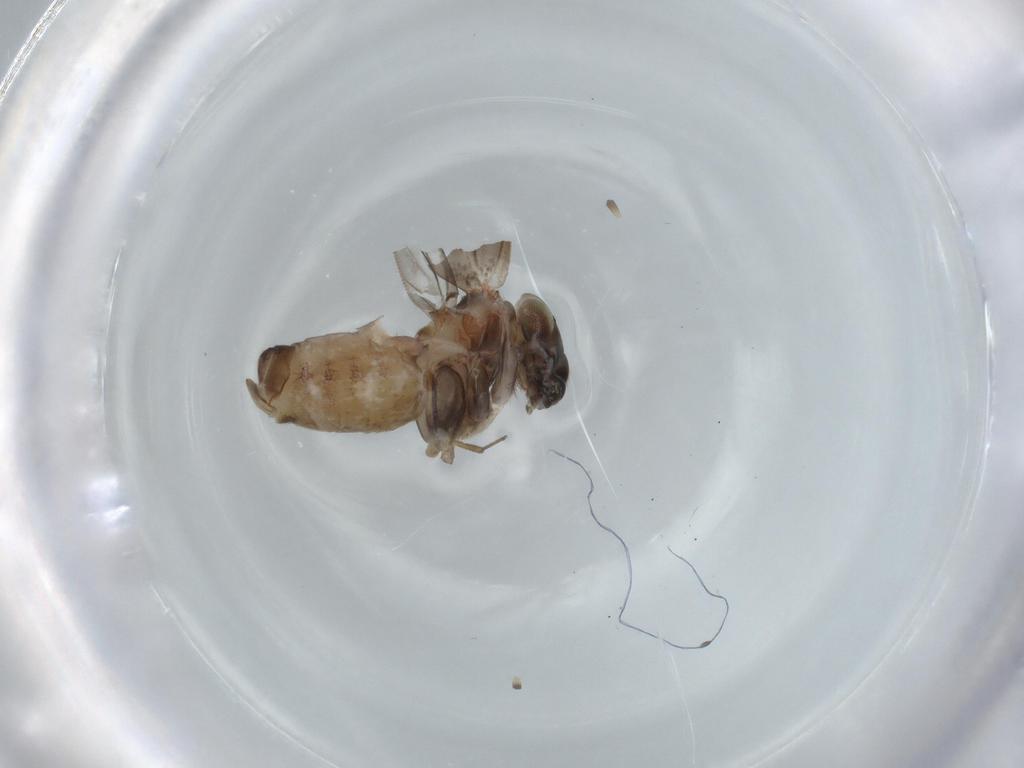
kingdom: Animalia
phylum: Arthropoda
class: Insecta
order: Psocodea
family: Lepidopsocidae
